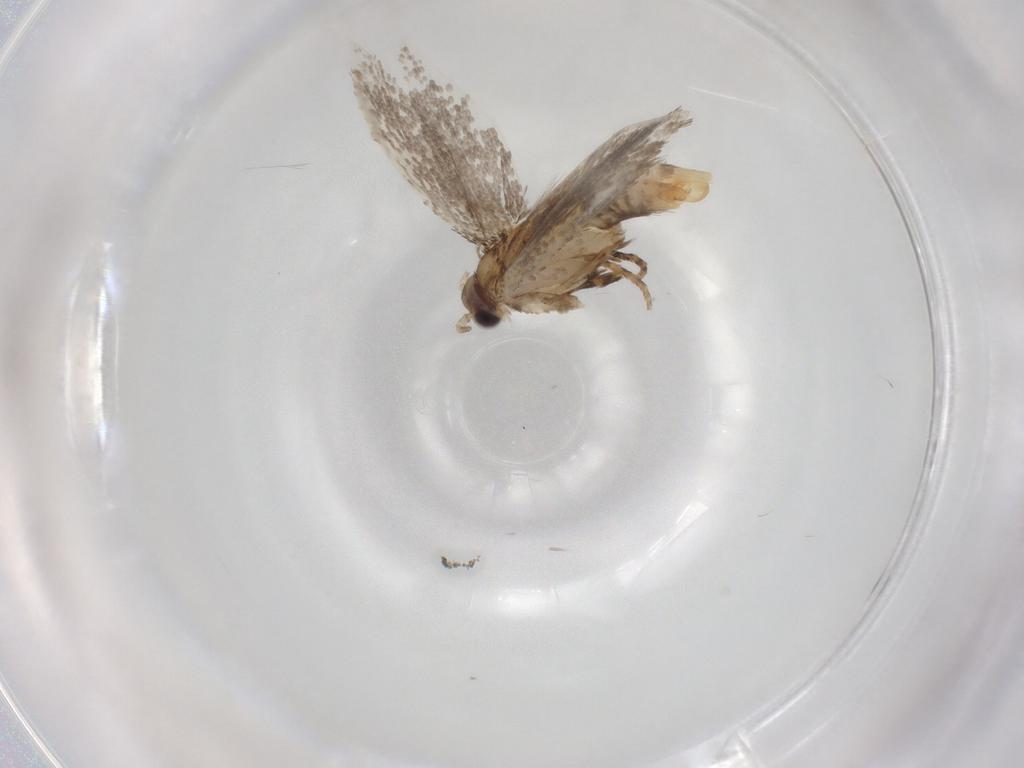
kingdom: Animalia
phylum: Arthropoda
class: Insecta
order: Lepidoptera
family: Tineidae
